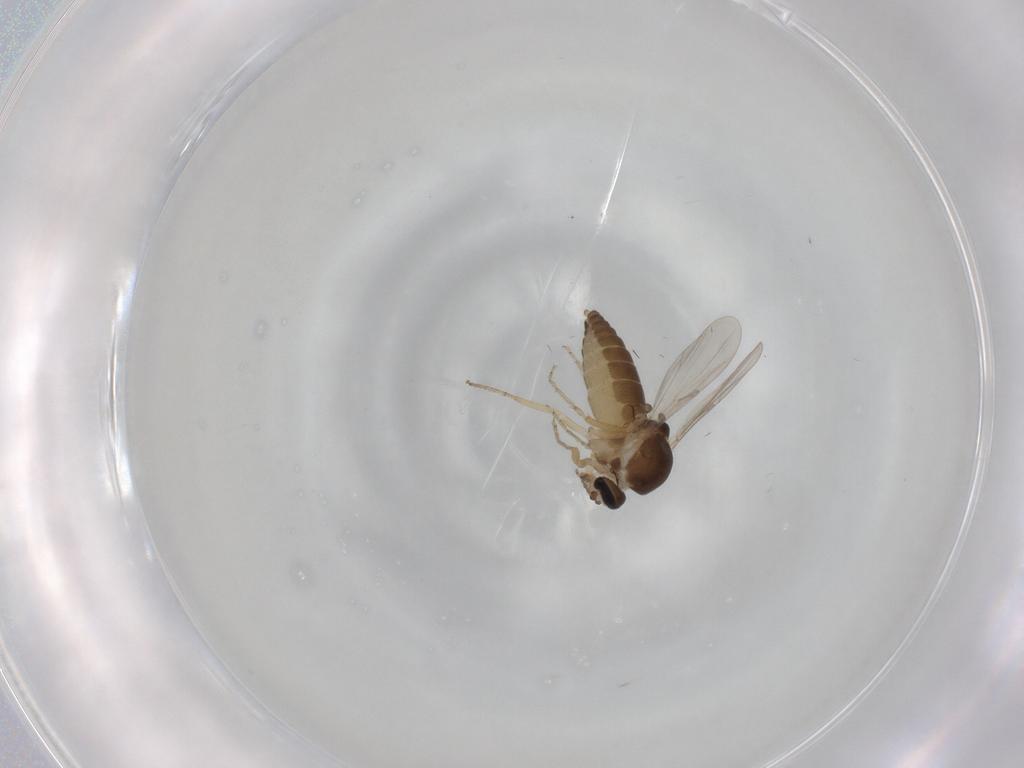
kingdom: Animalia
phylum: Arthropoda
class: Insecta
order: Diptera
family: Ceratopogonidae
